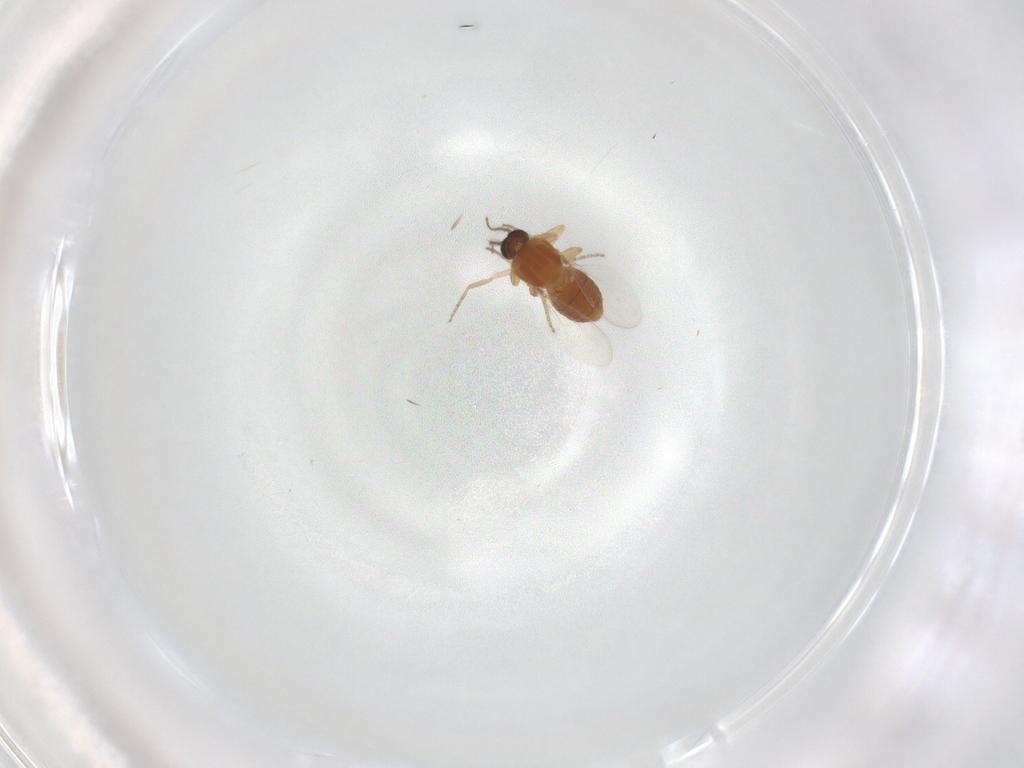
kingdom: Animalia
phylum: Arthropoda
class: Insecta
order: Diptera
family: Ceratopogonidae
